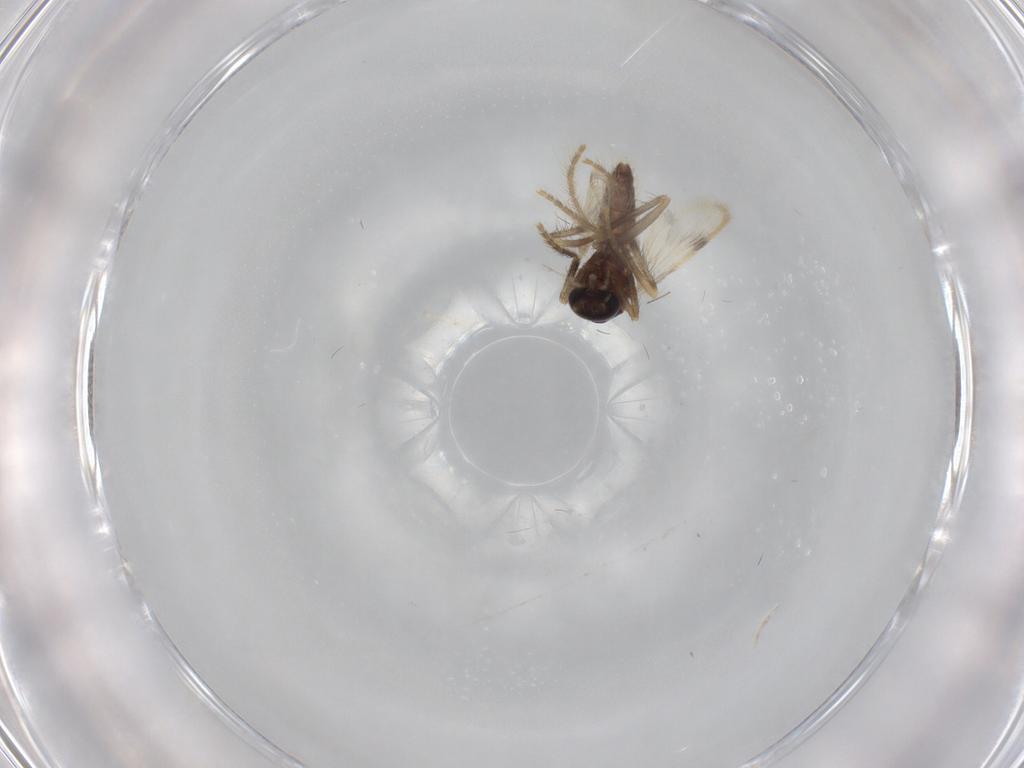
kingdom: Animalia
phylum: Arthropoda
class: Insecta
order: Diptera
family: Corethrellidae
